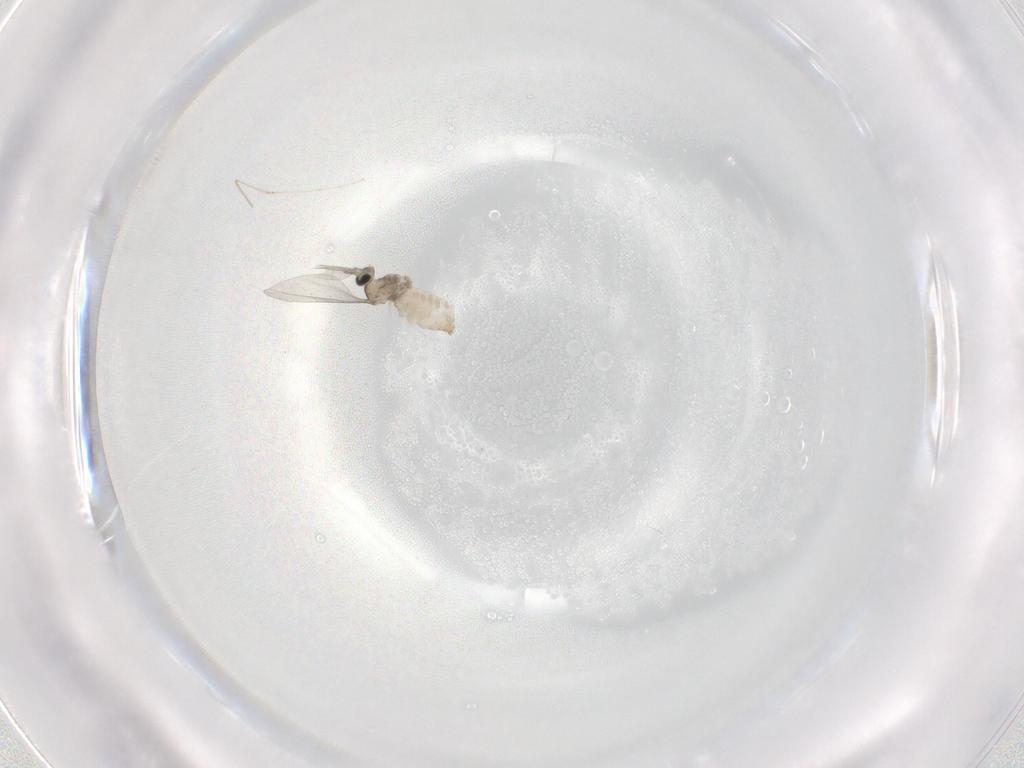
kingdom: Animalia
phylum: Arthropoda
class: Insecta
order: Diptera
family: Cecidomyiidae
